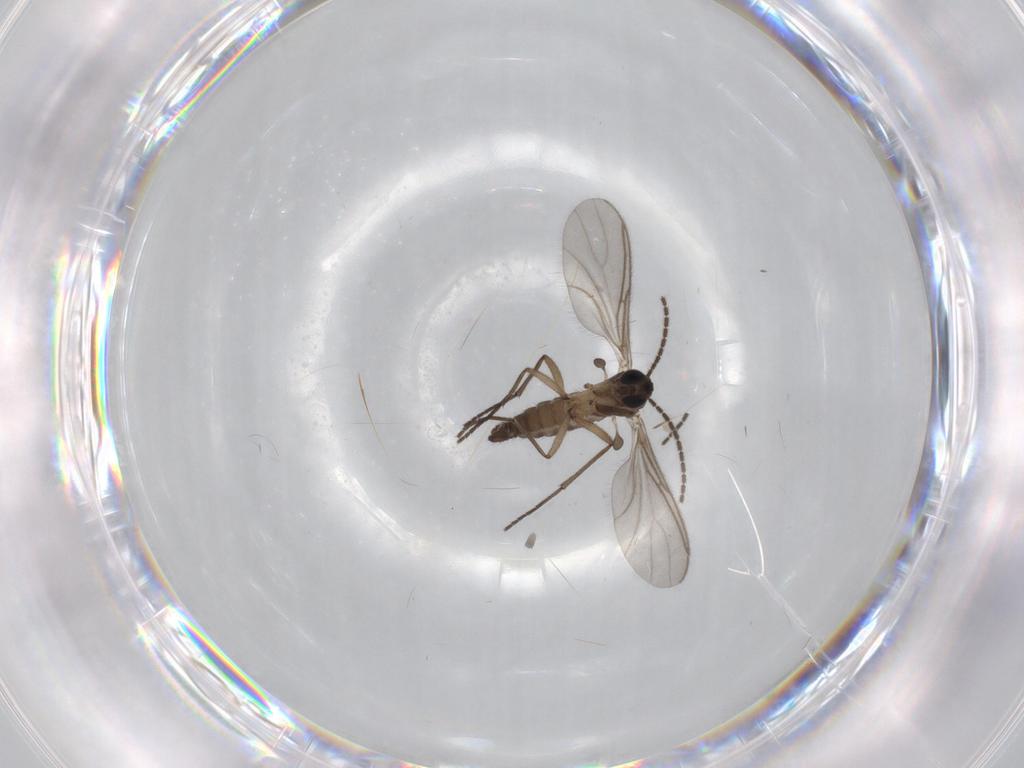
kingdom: Animalia
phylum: Arthropoda
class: Insecta
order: Diptera
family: Sciaridae
